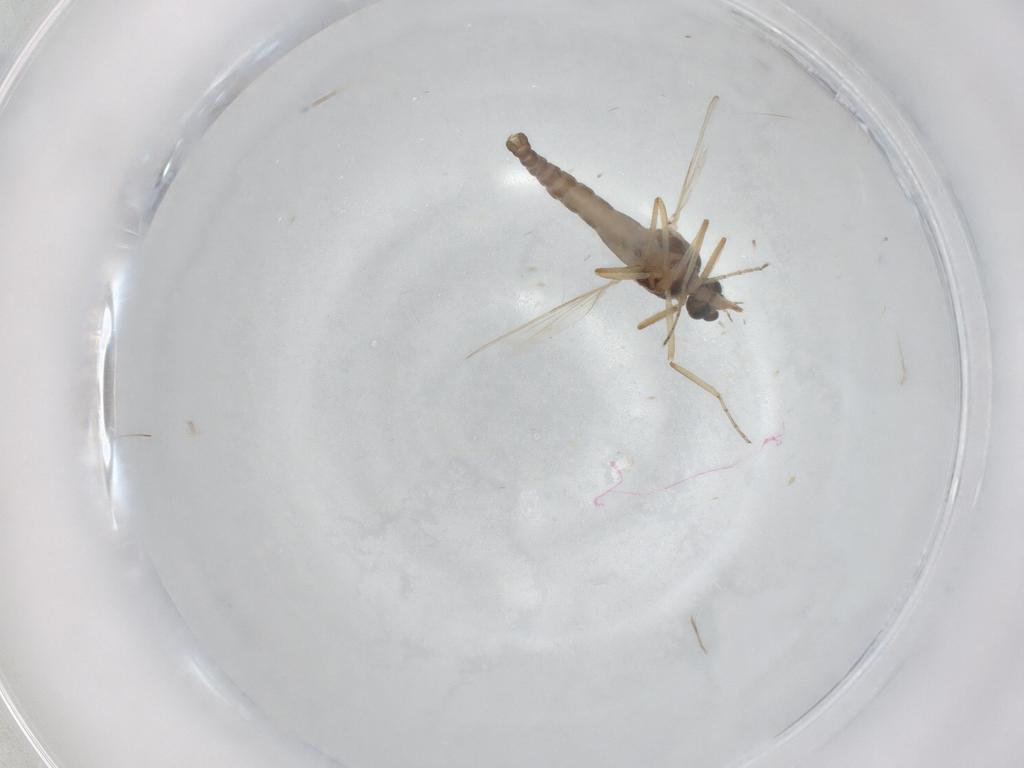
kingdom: Animalia
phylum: Arthropoda
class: Insecta
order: Diptera
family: Ceratopogonidae
